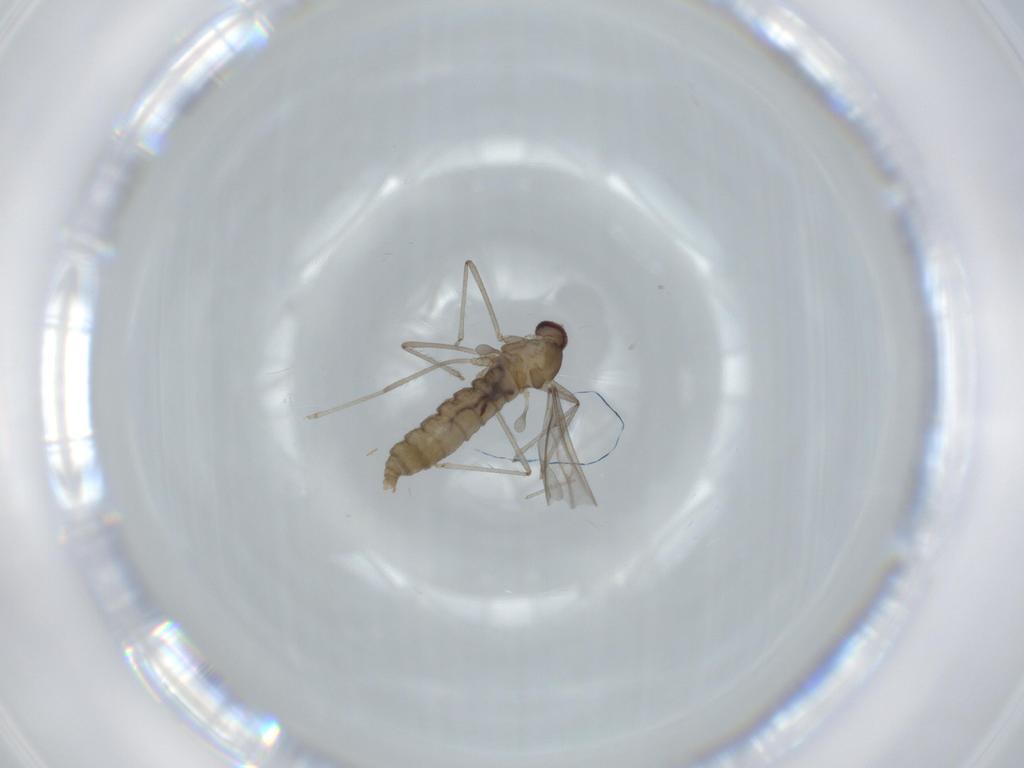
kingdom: Animalia
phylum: Arthropoda
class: Insecta
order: Diptera
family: Cecidomyiidae
